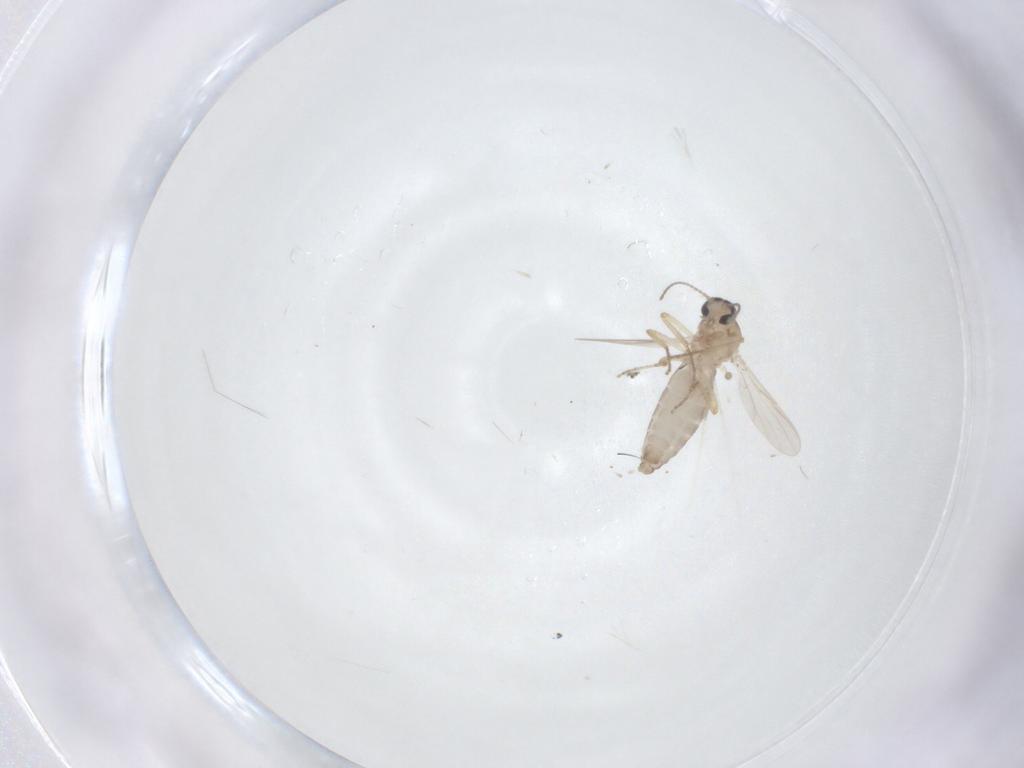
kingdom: Animalia
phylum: Arthropoda
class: Insecta
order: Diptera
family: Ceratopogonidae
